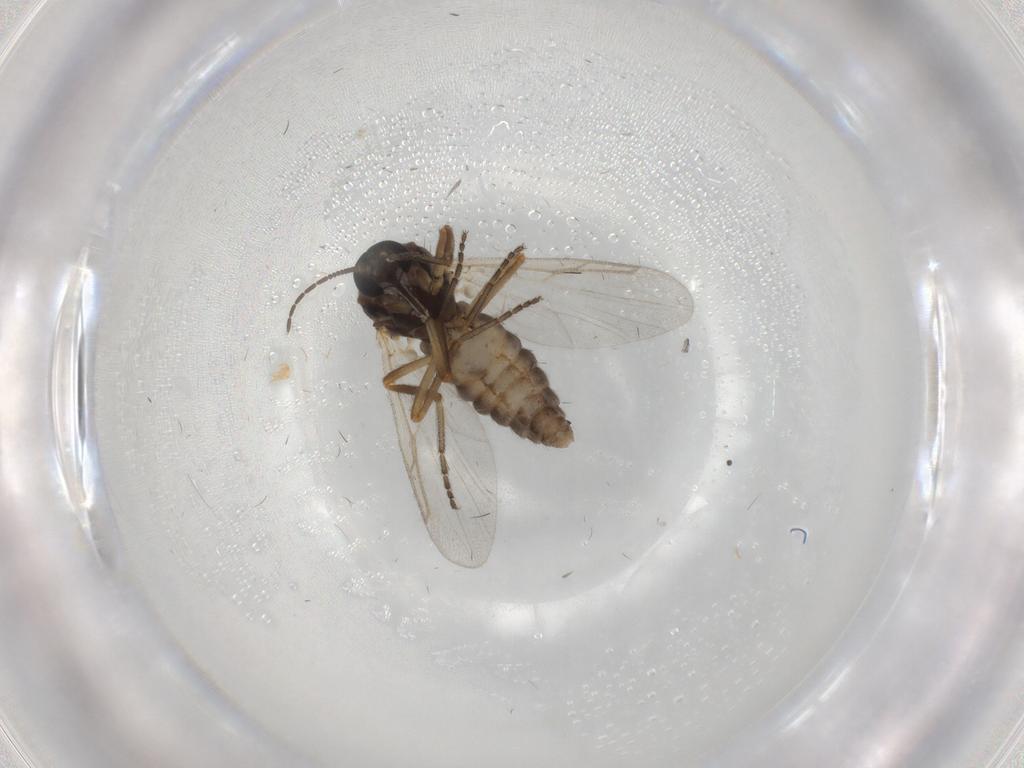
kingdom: Animalia
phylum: Arthropoda
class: Insecta
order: Diptera
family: Ceratopogonidae
